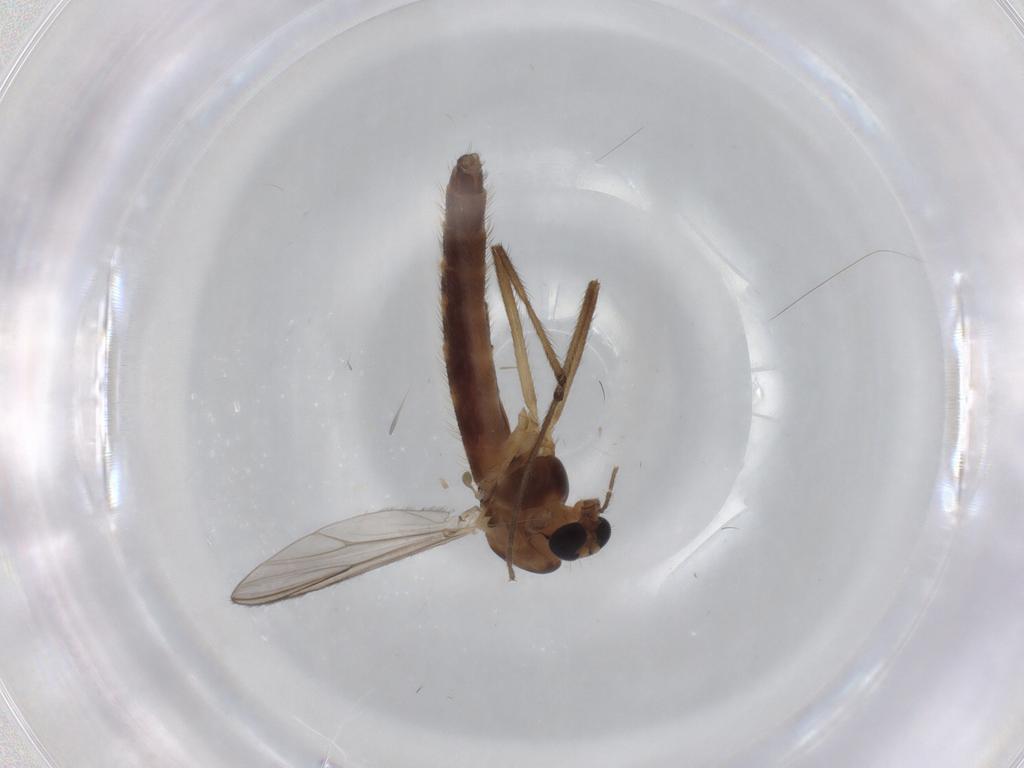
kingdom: Animalia
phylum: Arthropoda
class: Insecta
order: Diptera
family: Chironomidae
